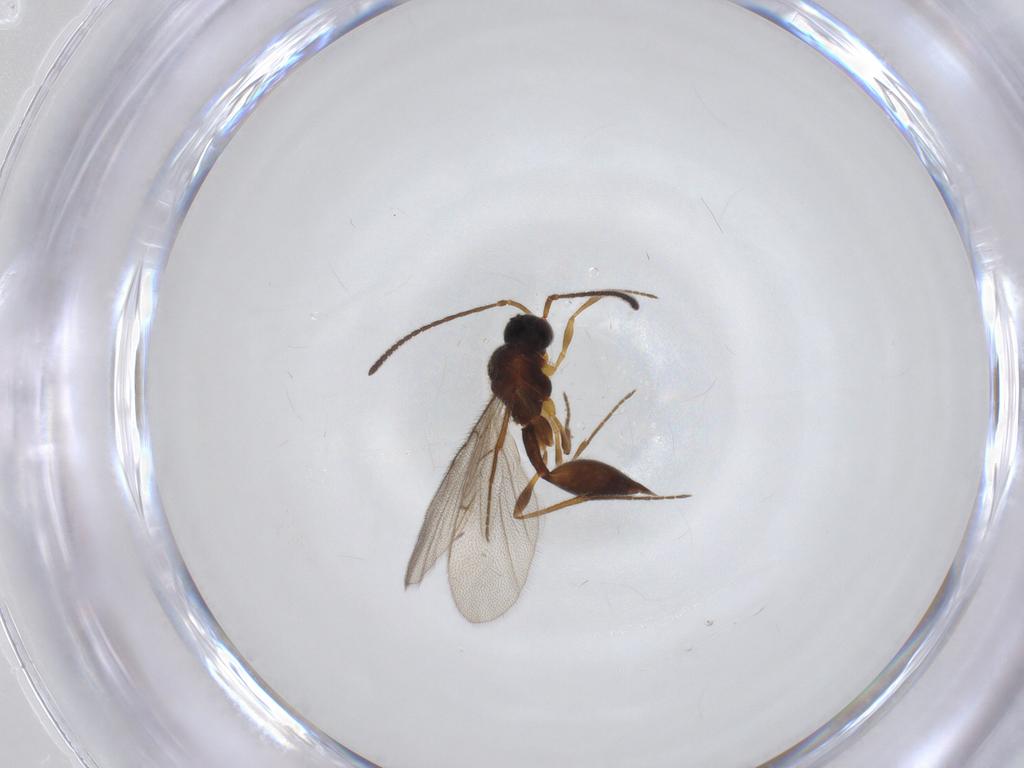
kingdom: Animalia
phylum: Arthropoda
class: Insecta
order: Hymenoptera
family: Diapriidae
